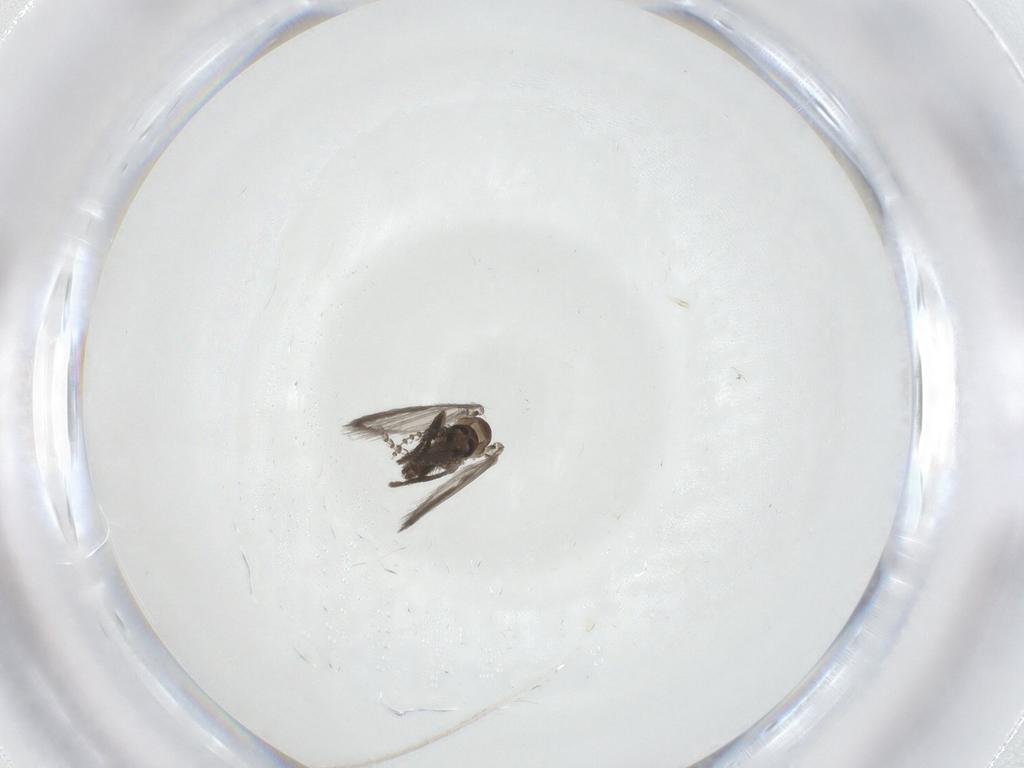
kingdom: Animalia
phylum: Arthropoda
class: Insecta
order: Diptera
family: Psychodidae
